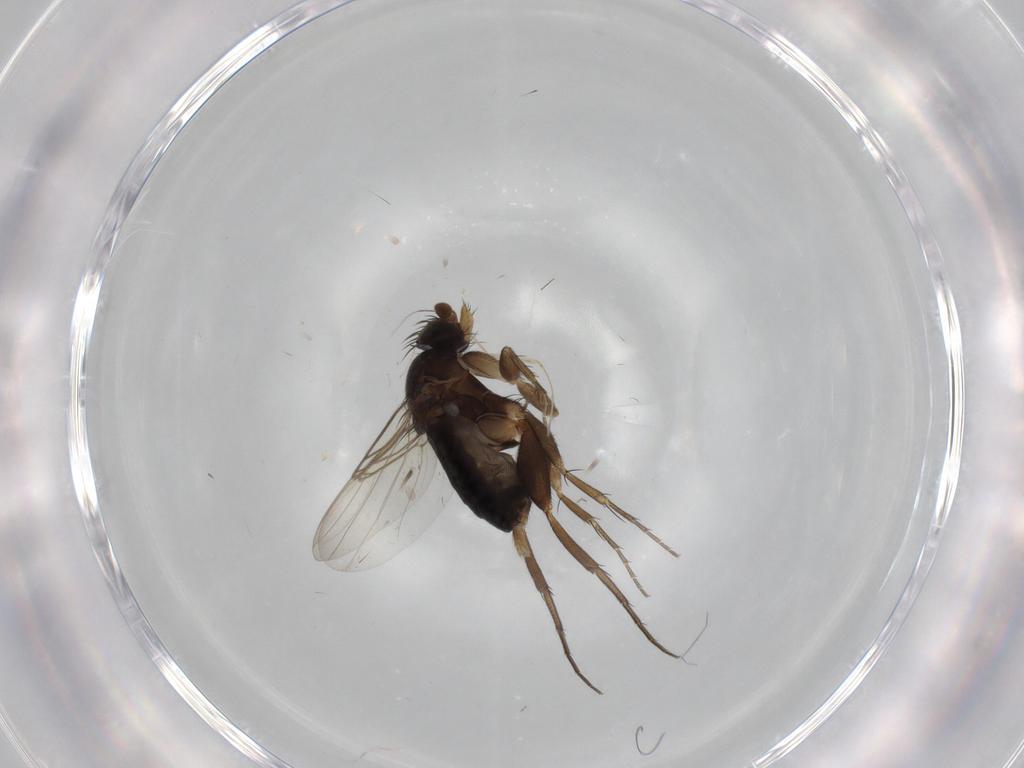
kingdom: Animalia
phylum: Arthropoda
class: Insecta
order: Diptera
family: Phoridae
